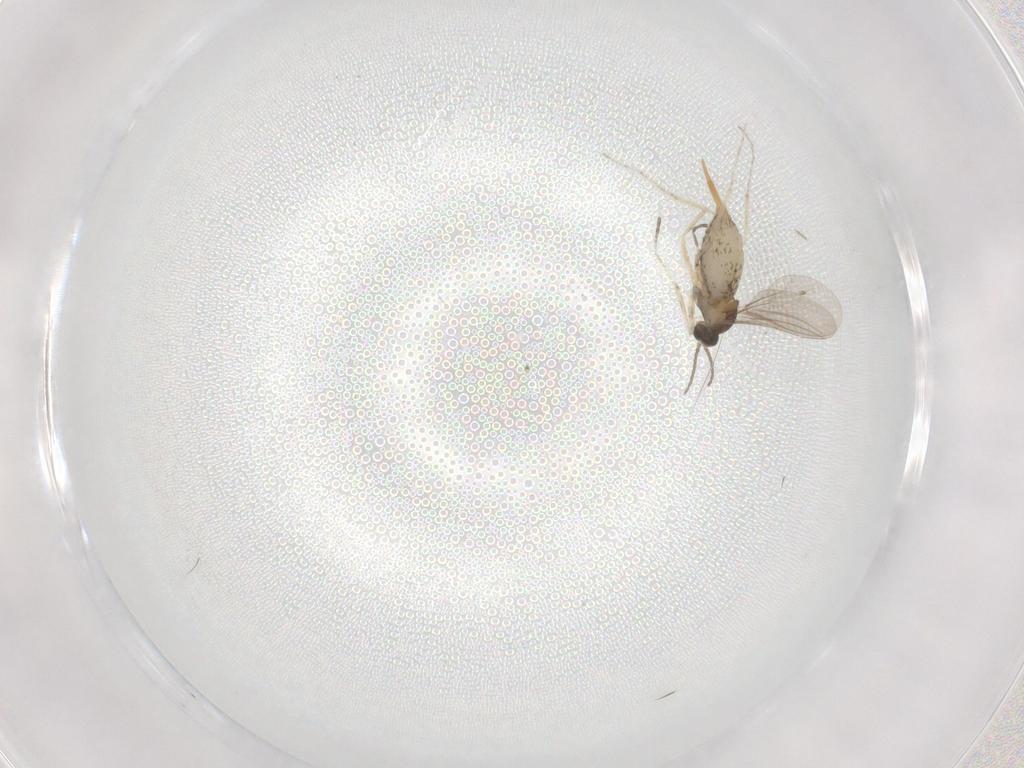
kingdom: Animalia
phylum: Arthropoda
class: Insecta
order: Diptera
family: Cecidomyiidae
